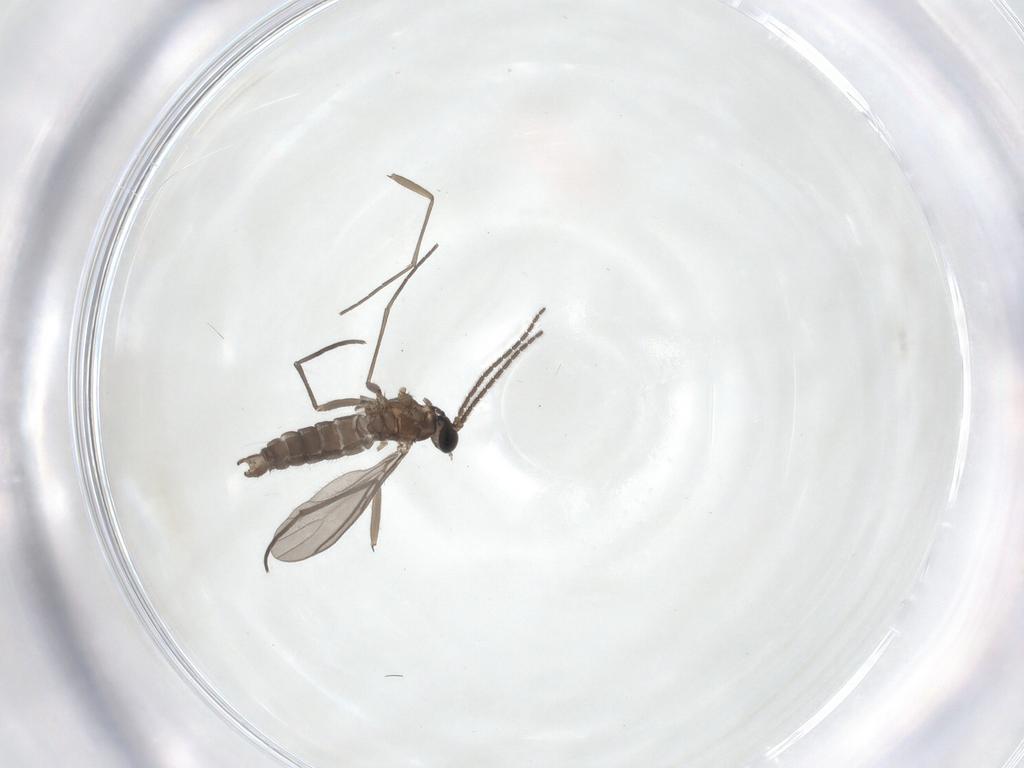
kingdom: Animalia
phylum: Arthropoda
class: Insecta
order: Diptera
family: Sciaridae
